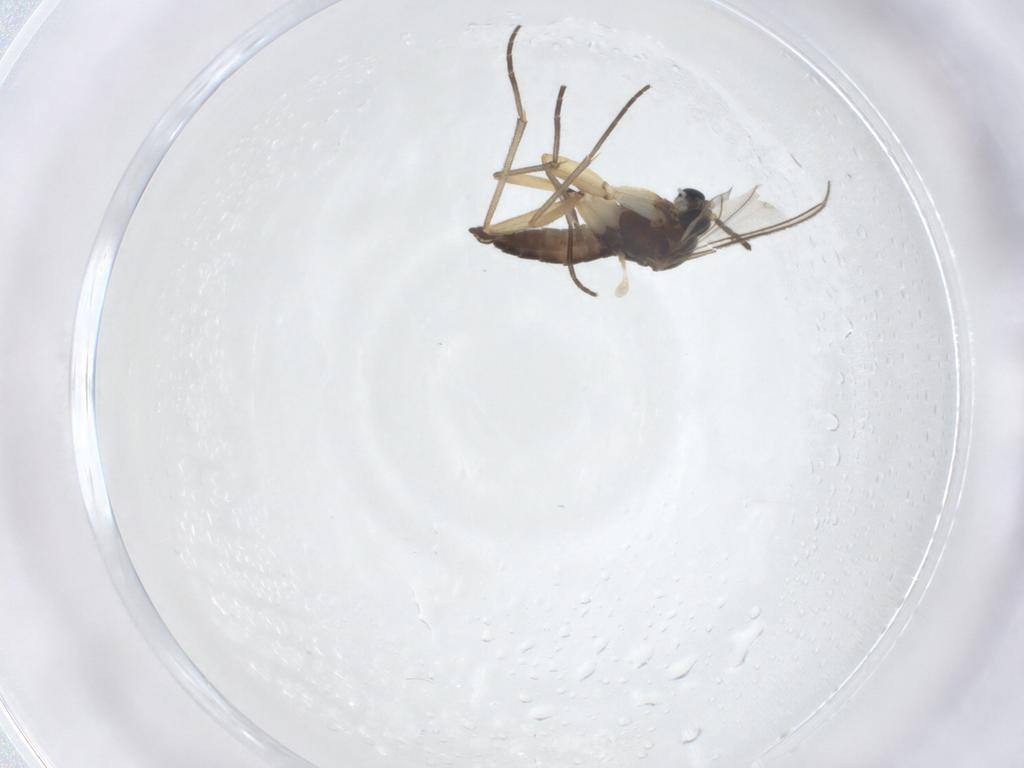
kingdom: Animalia
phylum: Arthropoda
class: Insecta
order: Diptera
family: Sciaridae
